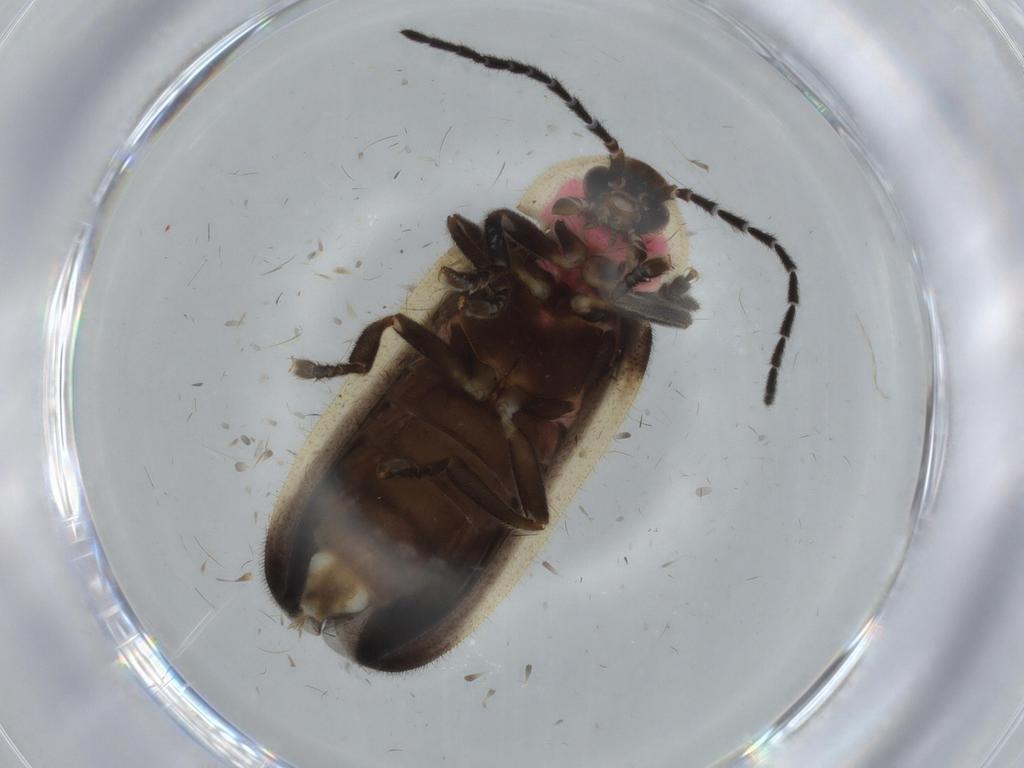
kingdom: Animalia
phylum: Arthropoda
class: Insecta
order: Coleoptera
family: Lampyridae
